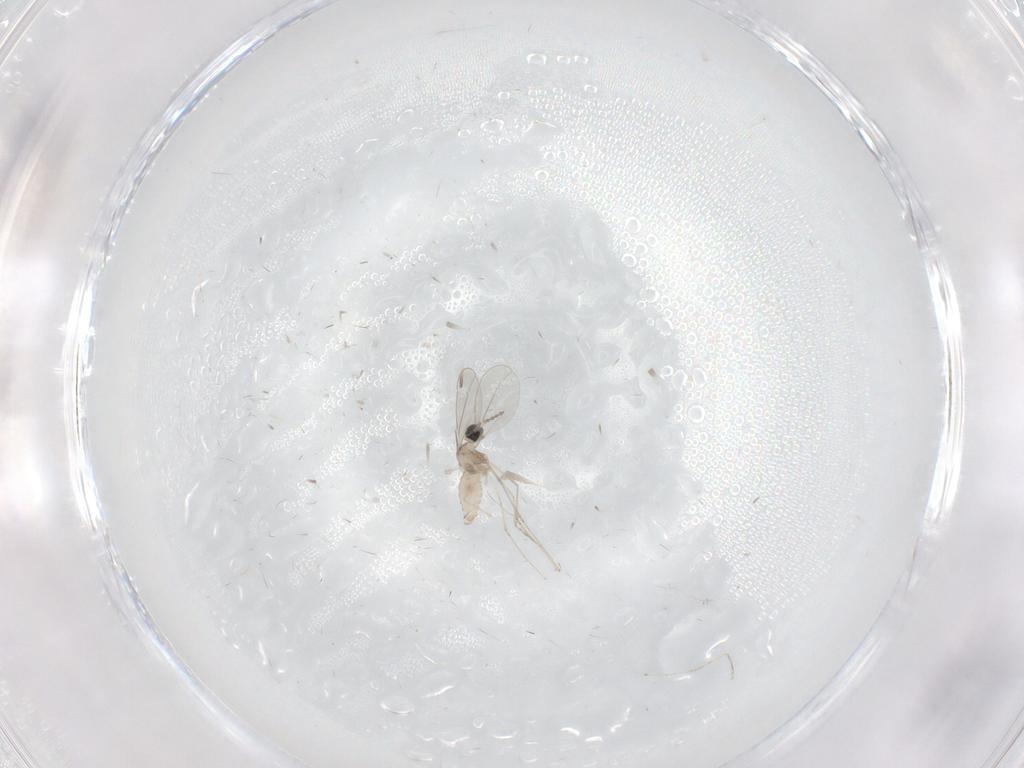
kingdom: Animalia
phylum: Arthropoda
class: Insecta
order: Diptera
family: Cecidomyiidae
